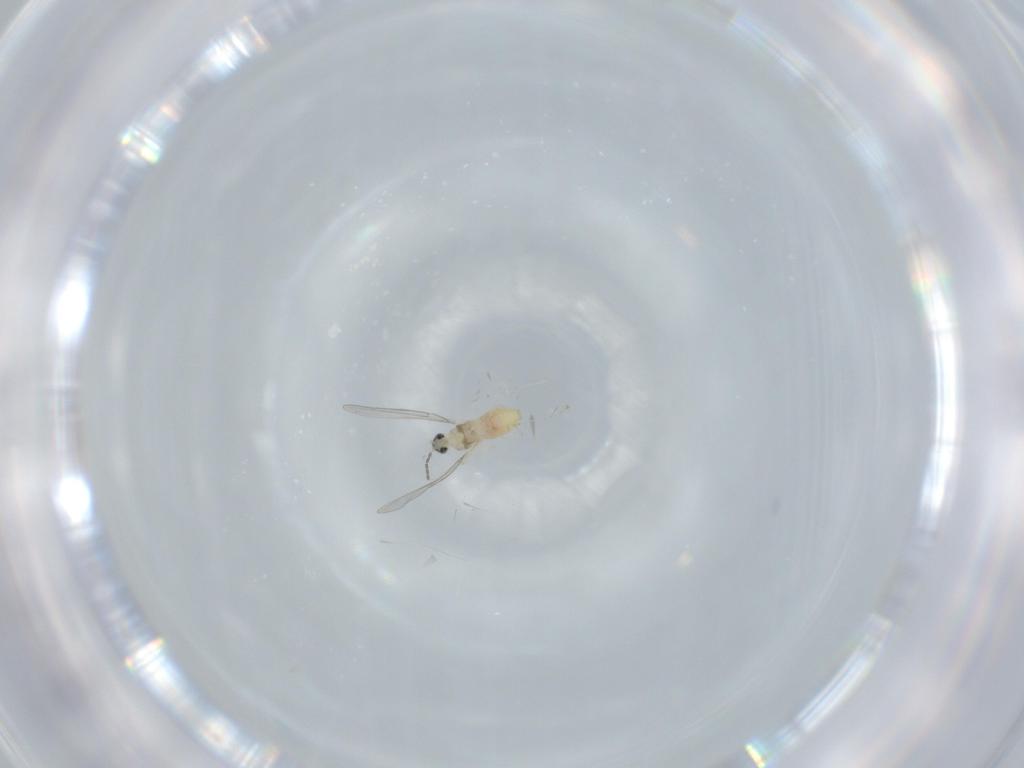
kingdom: Animalia
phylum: Arthropoda
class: Insecta
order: Diptera
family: Cecidomyiidae
